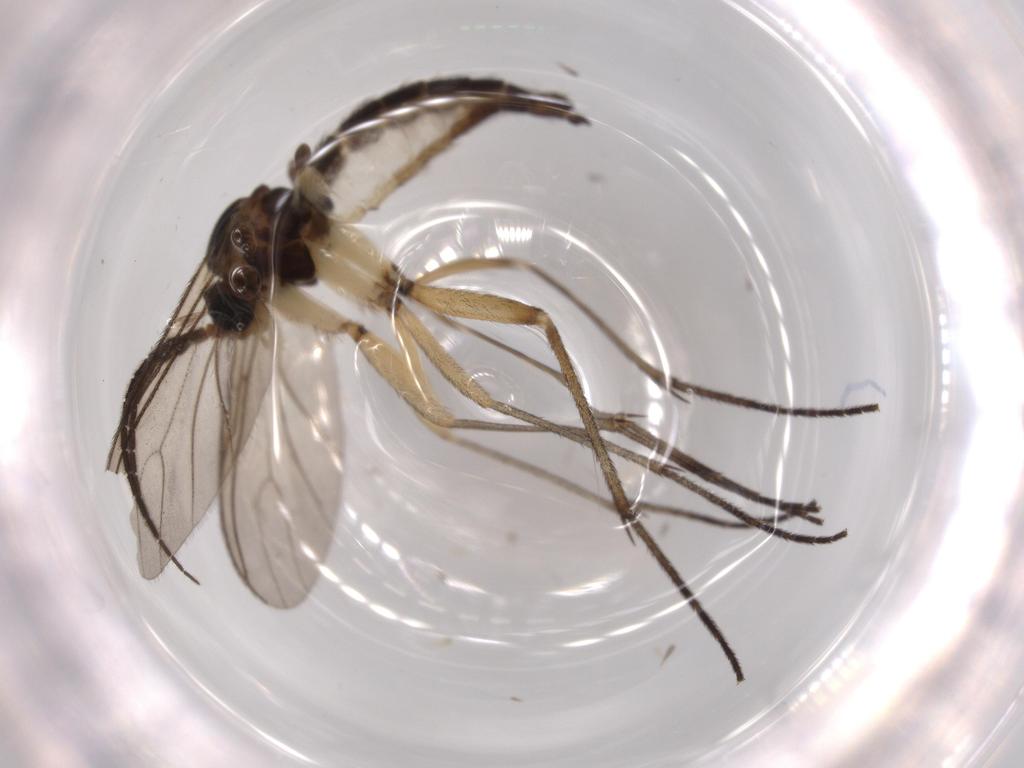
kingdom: Animalia
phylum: Arthropoda
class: Insecta
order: Diptera
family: Sciaridae
